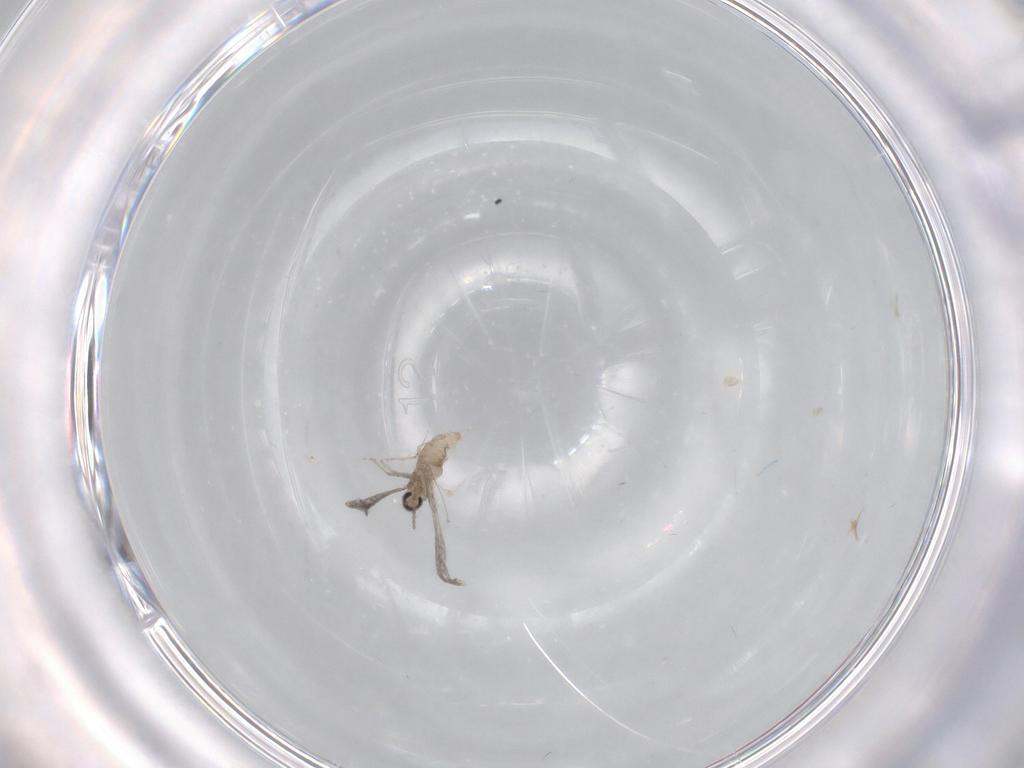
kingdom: Animalia
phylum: Arthropoda
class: Insecta
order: Diptera
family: Cecidomyiidae
